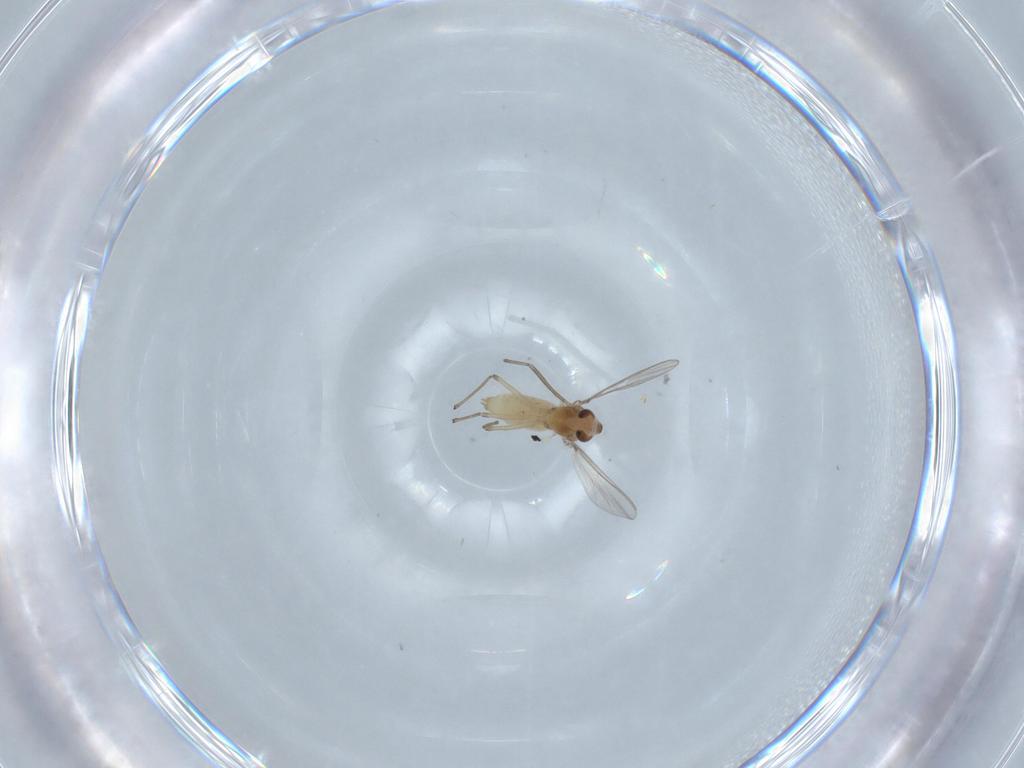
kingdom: Animalia
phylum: Arthropoda
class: Insecta
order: Diptera
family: Chironomidae
